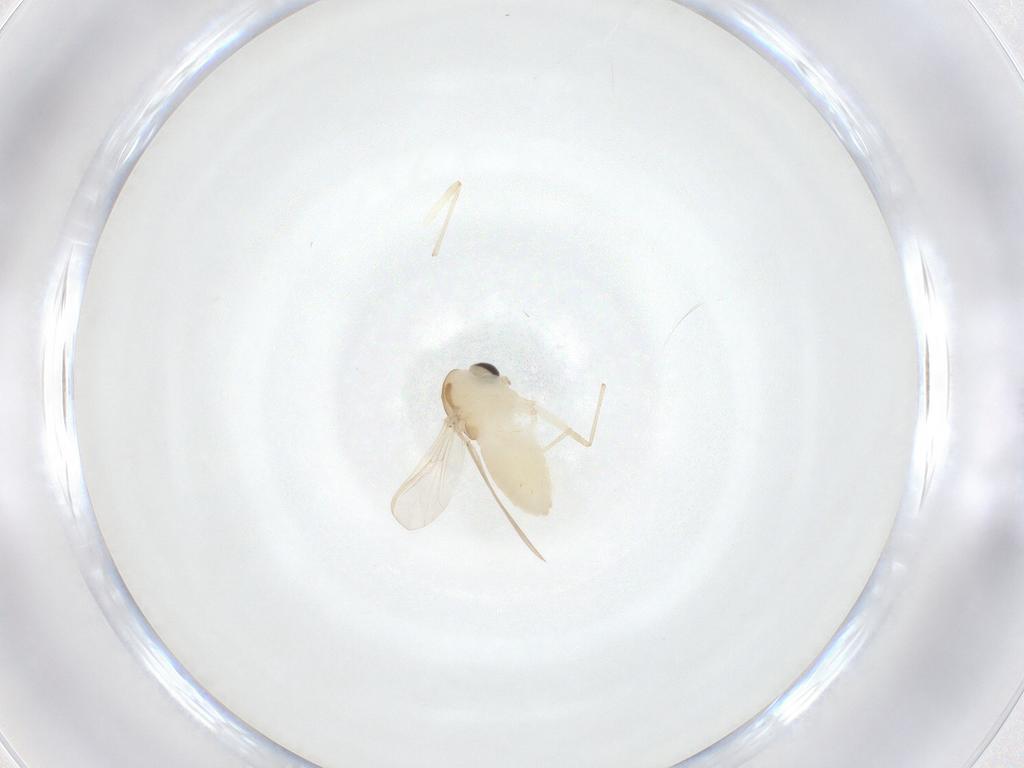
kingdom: Animalia
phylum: Arthropoda
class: Insecta
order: Diptera
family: Chironomidae
